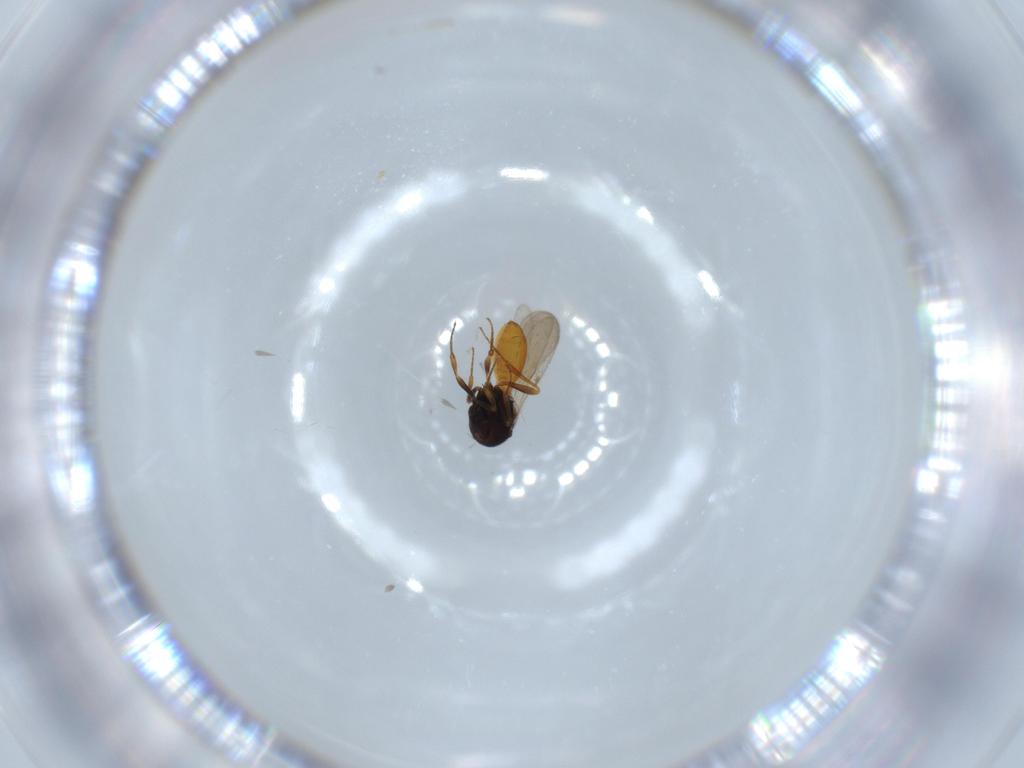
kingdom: Animalia
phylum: Arthropoda
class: Insecta
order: Hymenoptera
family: Scelionidae
